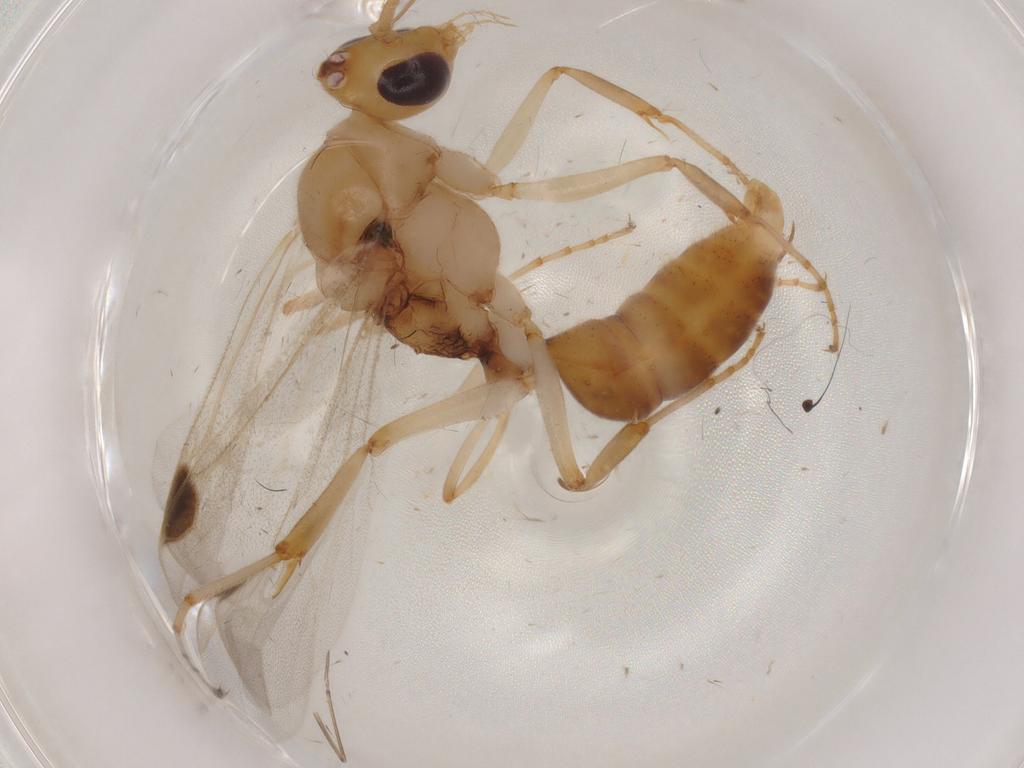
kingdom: Animalia
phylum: Arthropoda
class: Insecta
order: Hymenoptera
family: Formicidae
